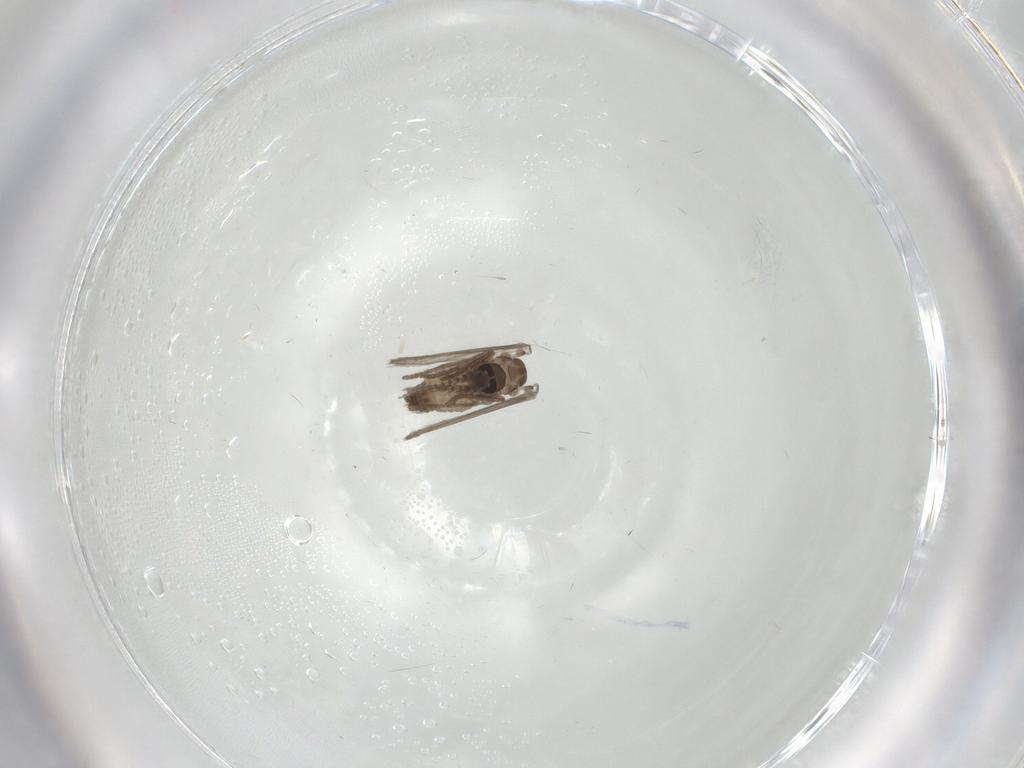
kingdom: Animalia
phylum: Arthropoda
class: Insecta
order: Diptera
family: Psychodidae
